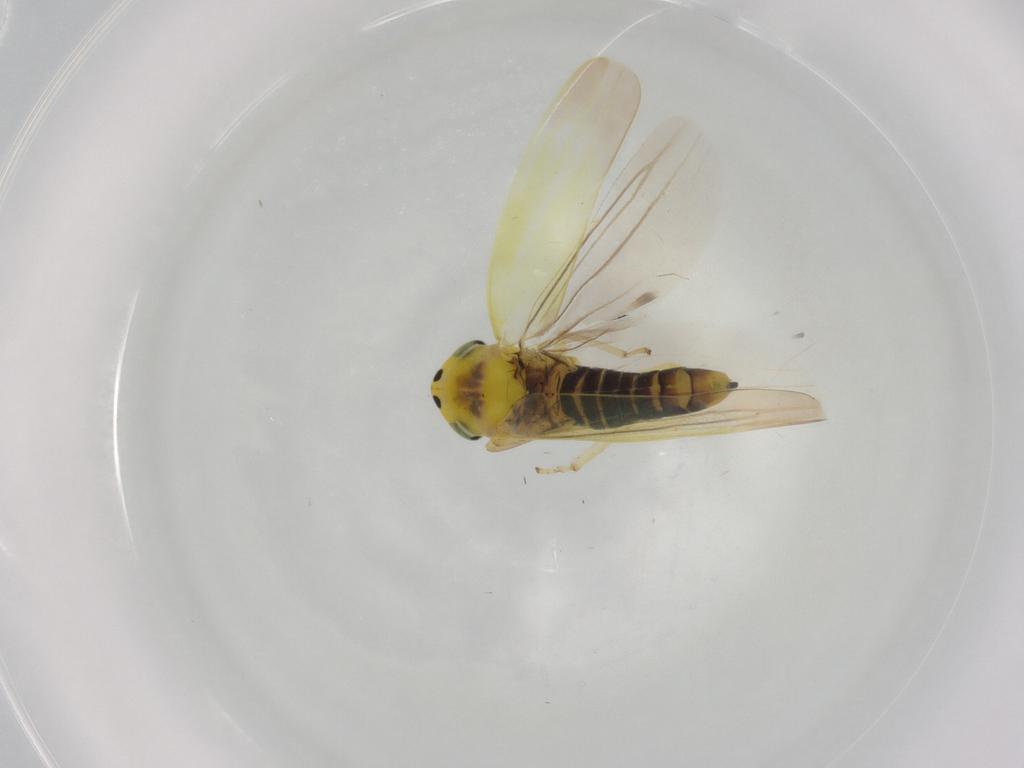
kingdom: Animalia
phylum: Arthropoda
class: Insecta
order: Hemiptera
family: Cicadellidae
